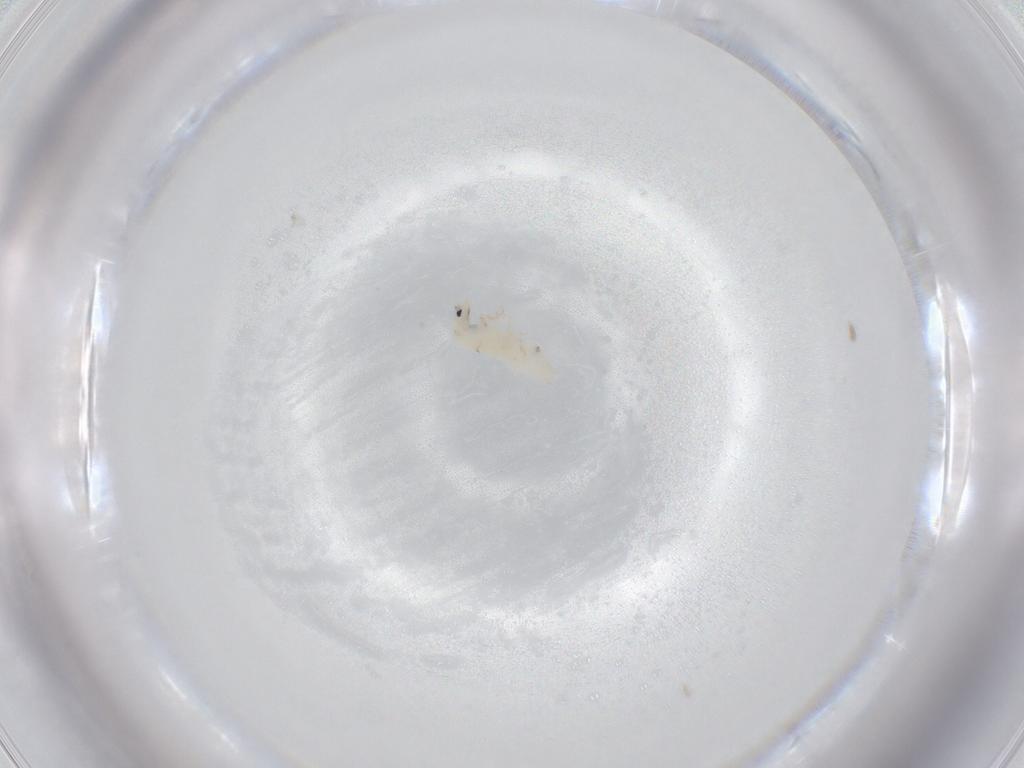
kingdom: Animalia
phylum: Arthropoda
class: Collembola
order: Entomobryomorpha
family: Entomobryidae
